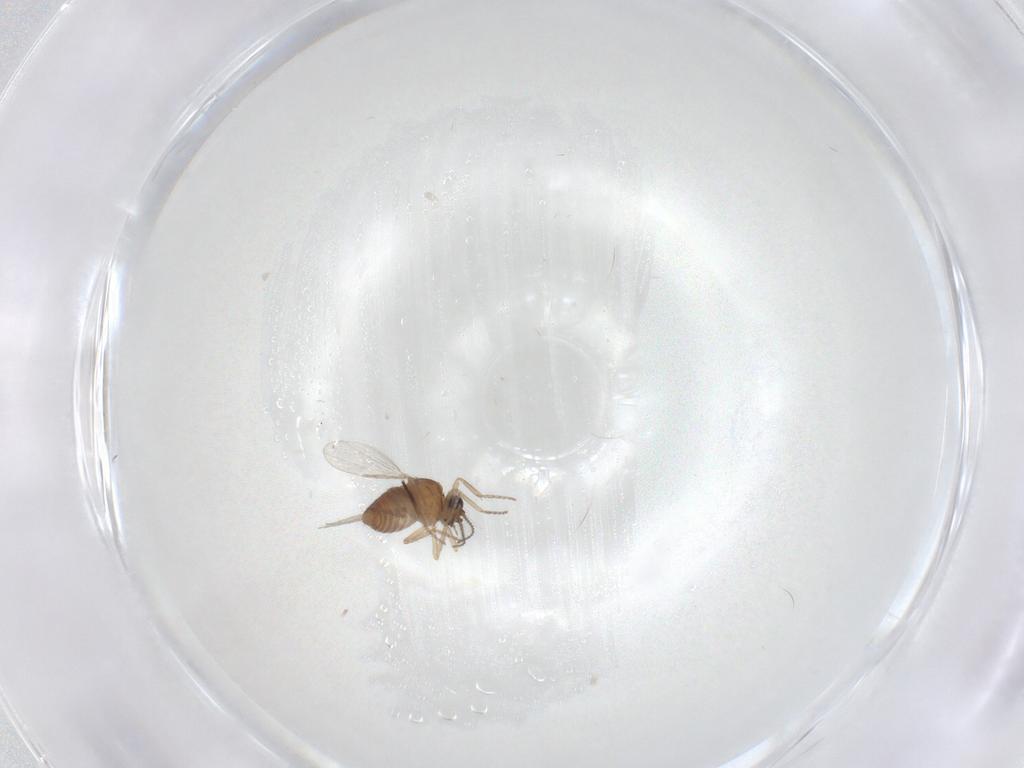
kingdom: Animalia
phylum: Arthropoda
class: Insecta
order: Diptera
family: Ceratopogonidae
